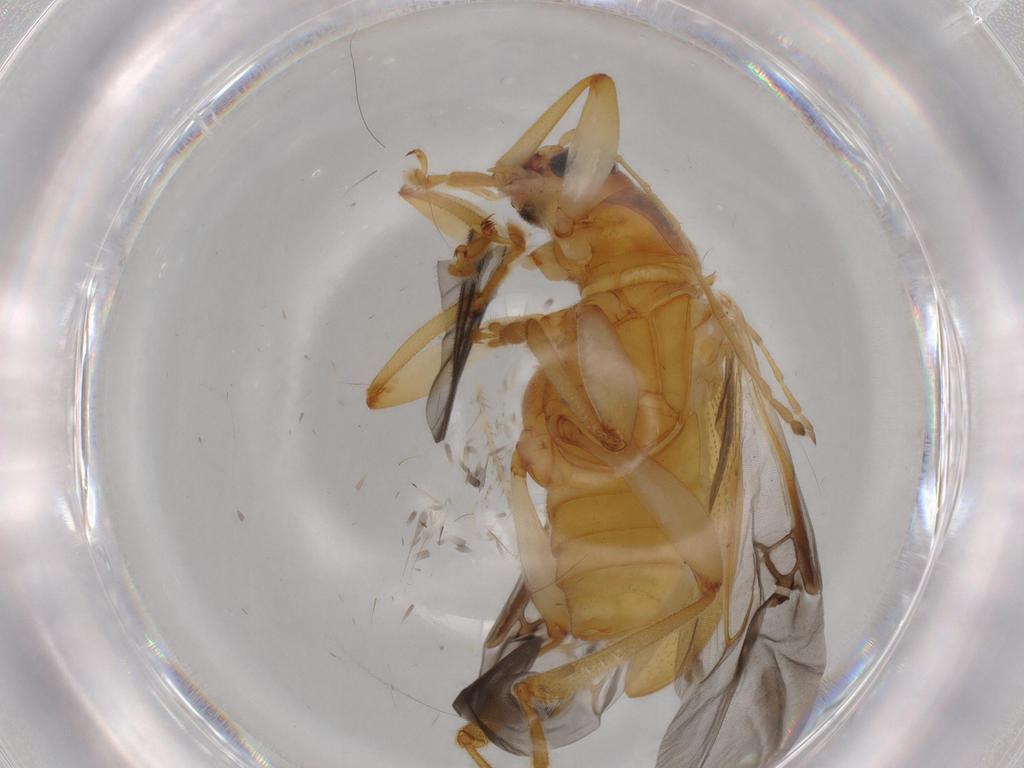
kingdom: Animalia
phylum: Arthropoda
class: Insecta
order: Coleoptera
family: Chrysomelidae
